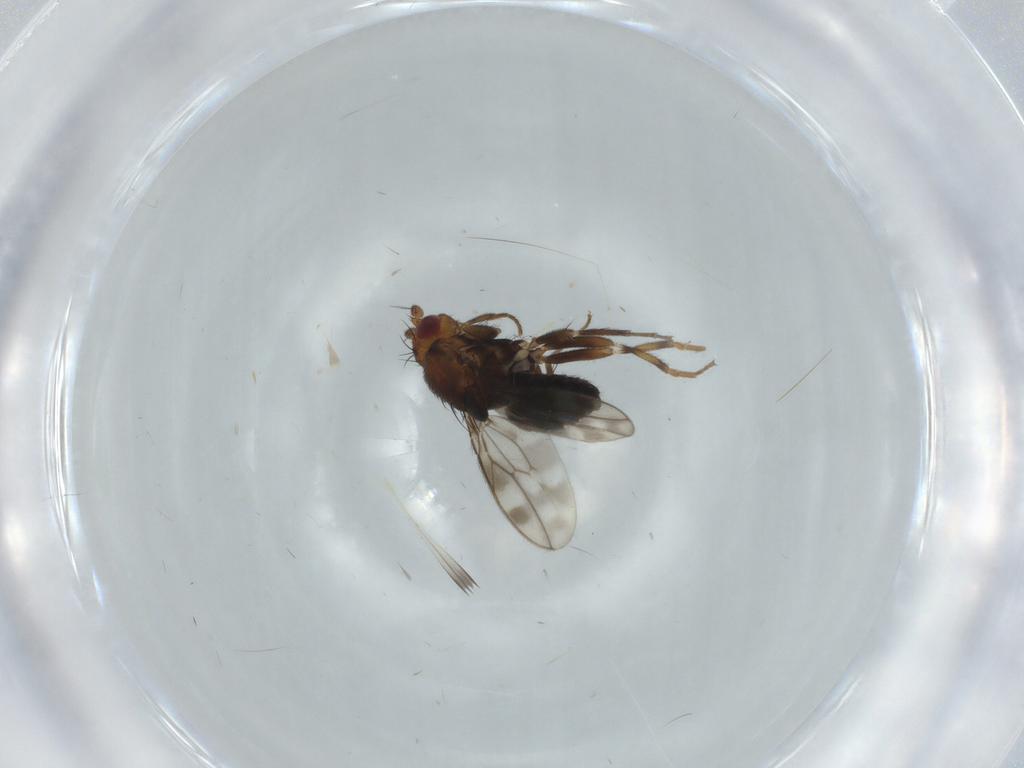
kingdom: Animalia
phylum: Arthropoda
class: Insecta
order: Diptera
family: Sphaeroceridae
